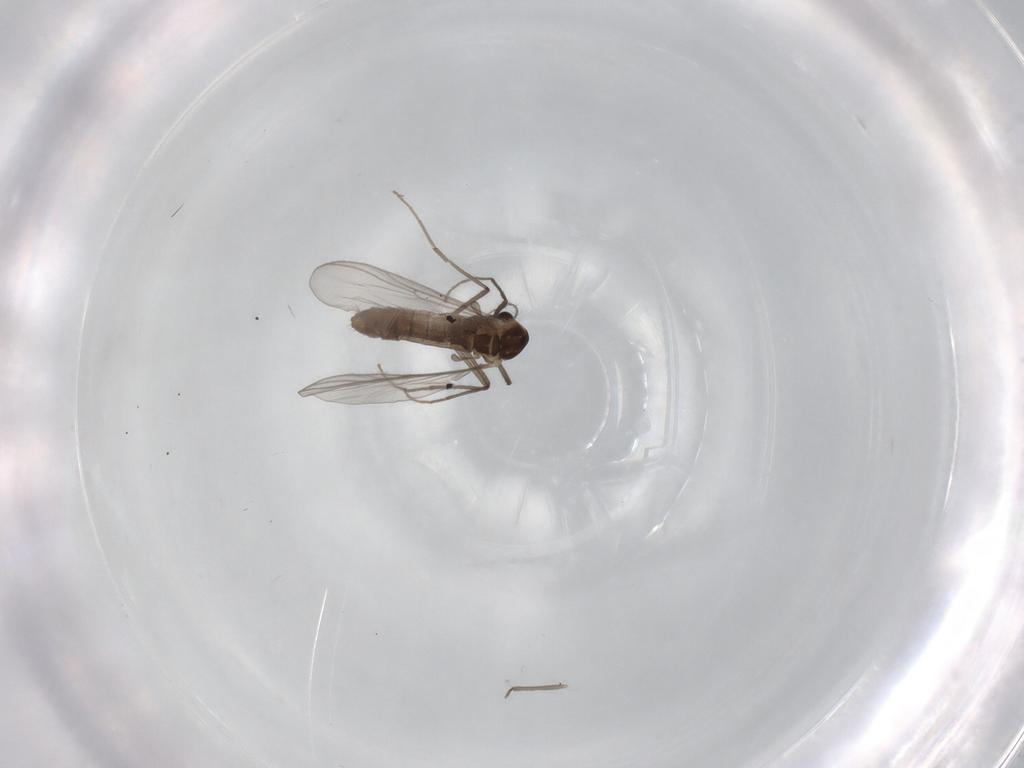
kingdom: Animalia
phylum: Arthropoda
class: Insecta
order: Diptera
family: Chironomidae
